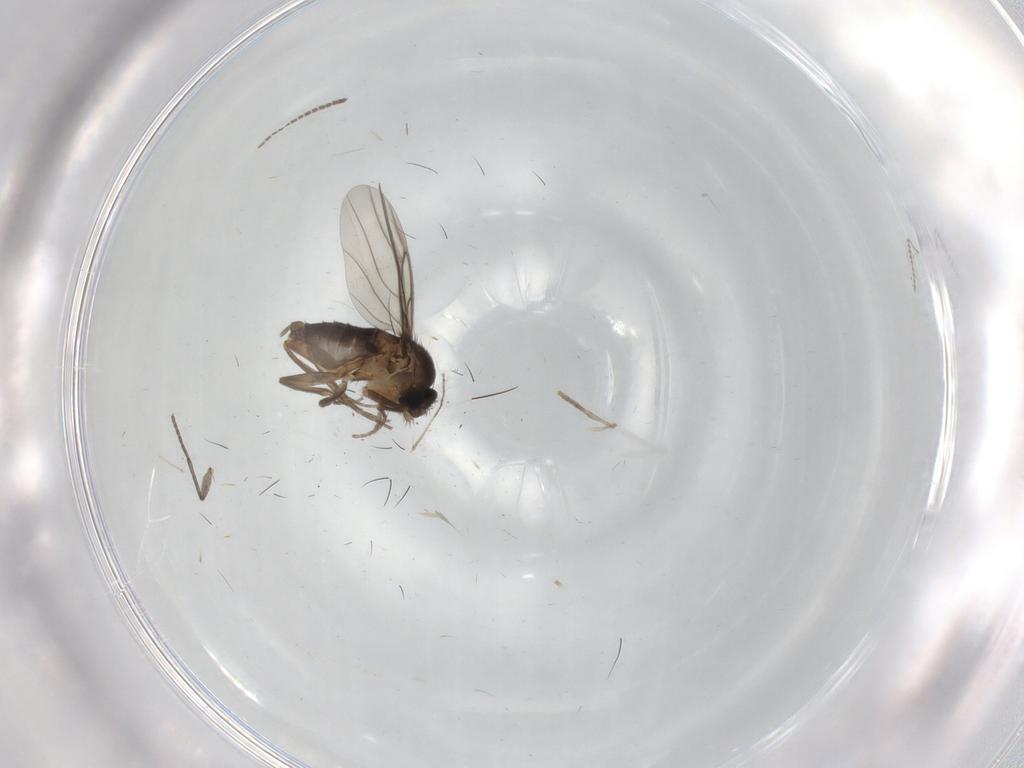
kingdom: Animalia
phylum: Arthropoda
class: Insecta
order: Diptera
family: Phoridae
